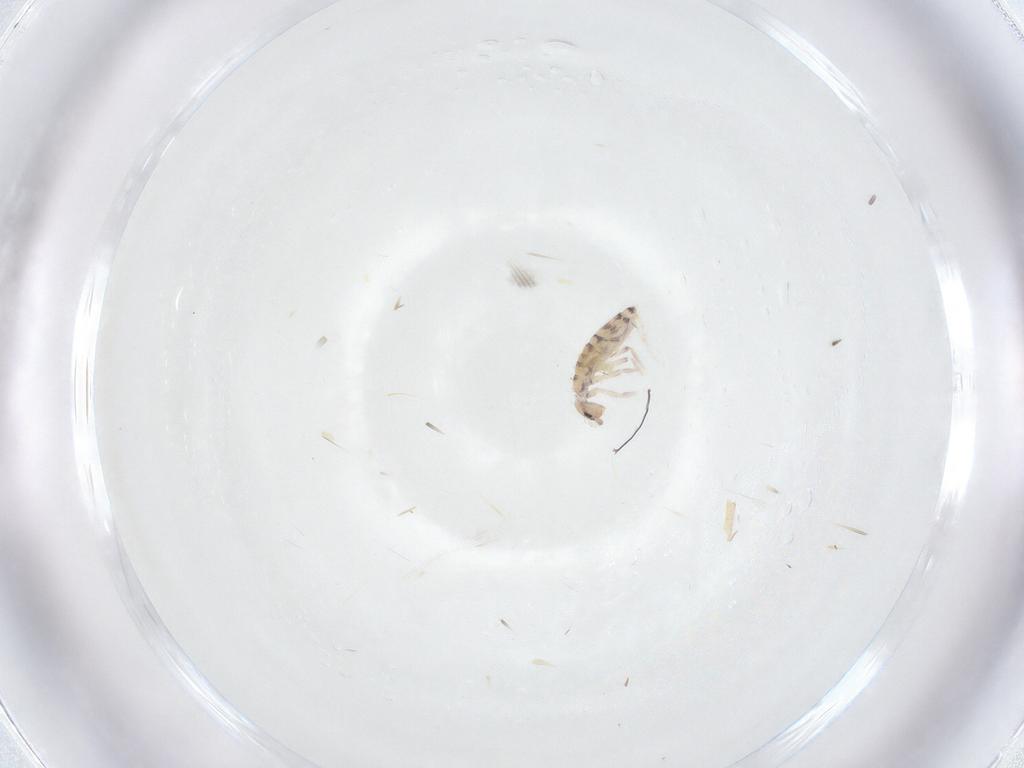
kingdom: Animalia
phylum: Arthropoda
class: Collembola
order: Entomobryomorpha
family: Entomobryidae
